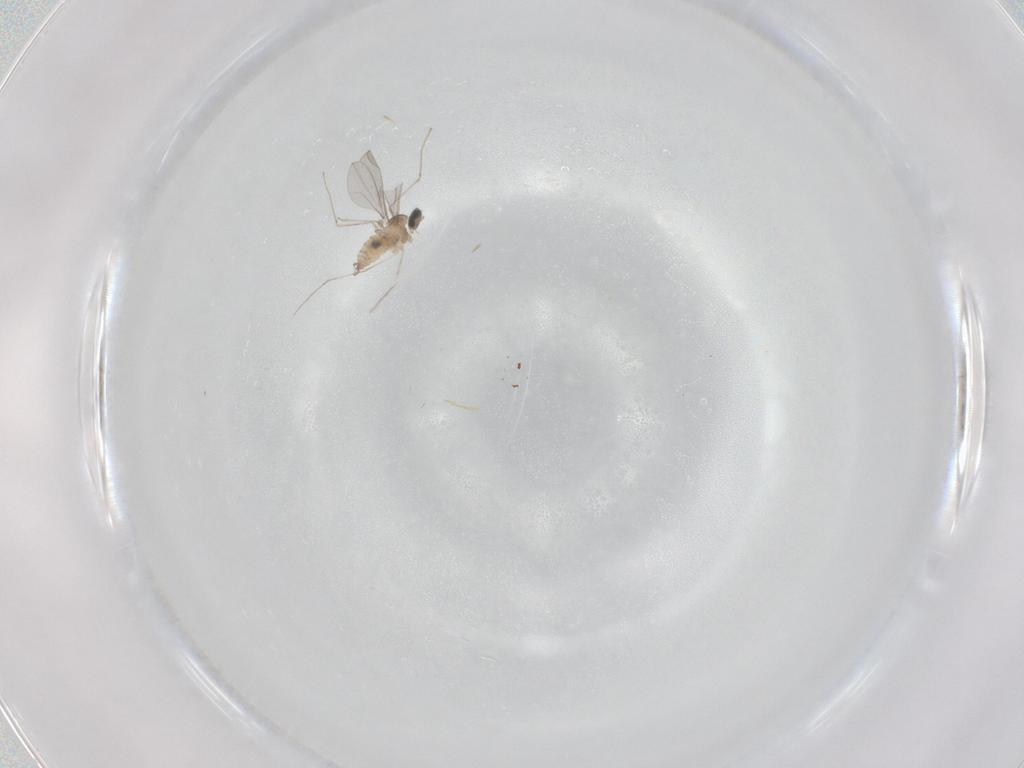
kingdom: Animalia
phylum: Arthropoda
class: Insecta
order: Diptera
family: Cecidomyiidae
